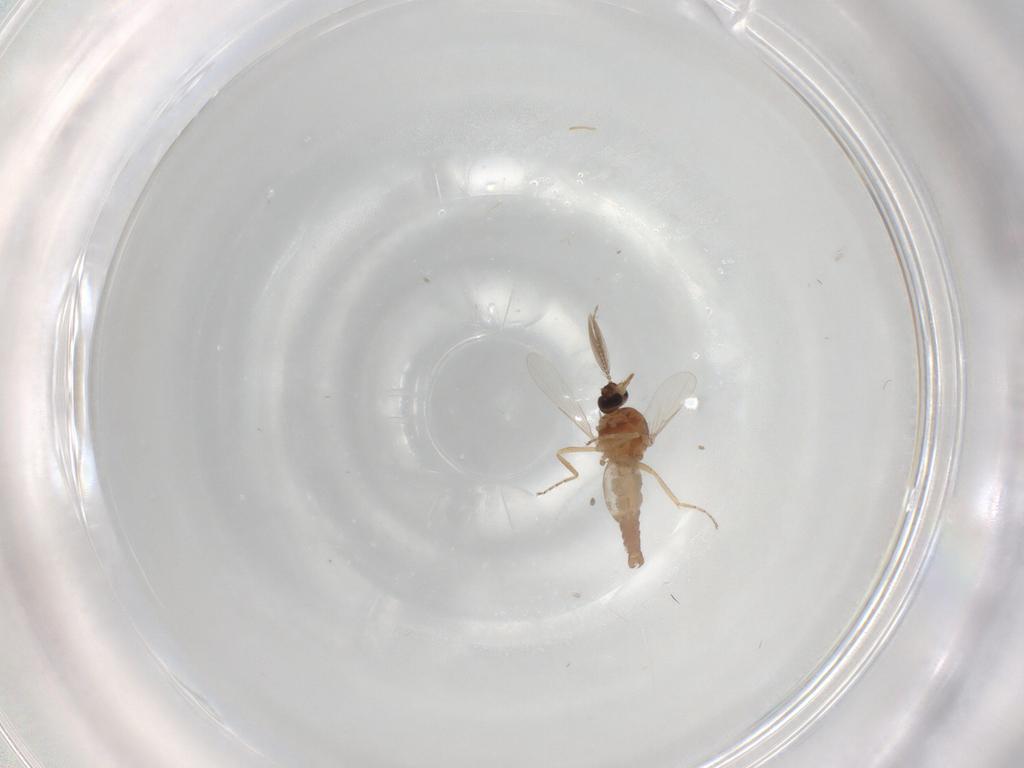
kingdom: Animalia
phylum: Arthropoda
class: Insecta
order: Diptera
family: Ceratopogonidae
